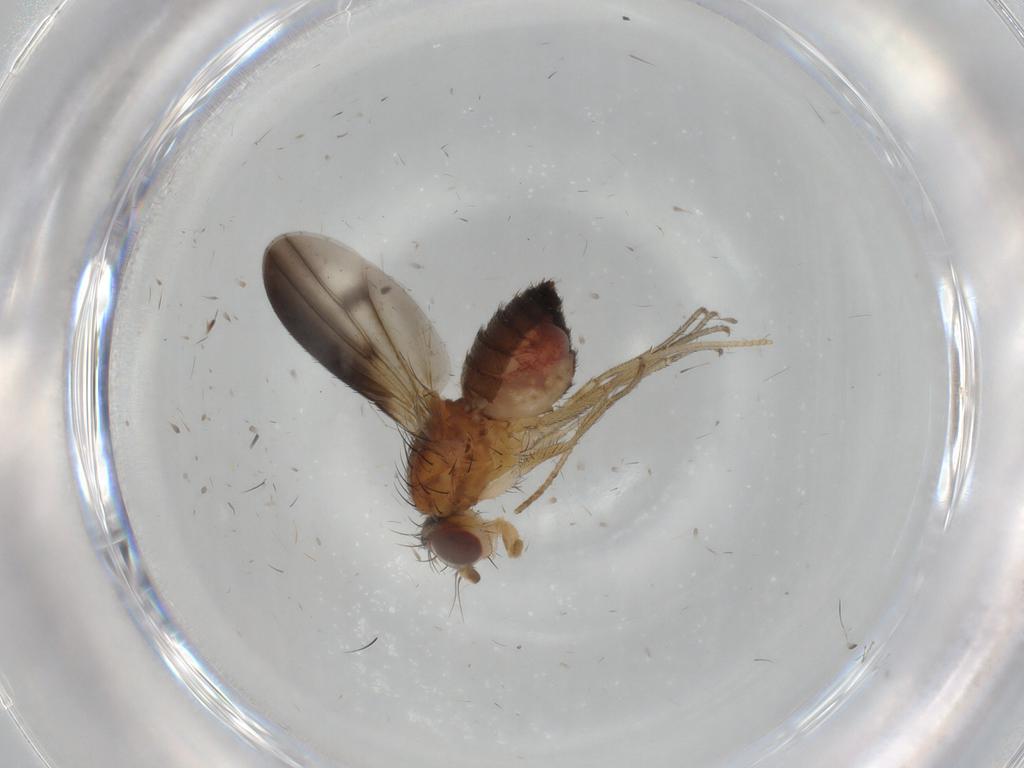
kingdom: Animalia
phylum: Arthropoda
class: Insecta
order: Diptera
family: Heleomyzidae
